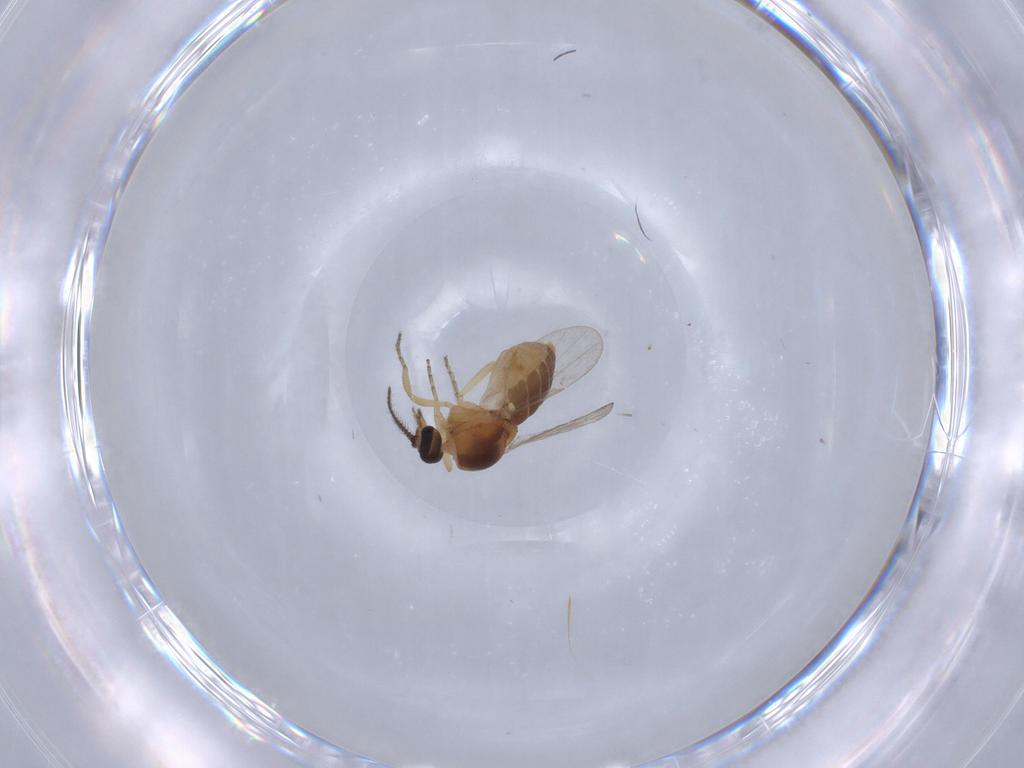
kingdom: Animalia
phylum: Arthropoda
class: Insecta
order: Diptera
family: Ceratopogonidae
